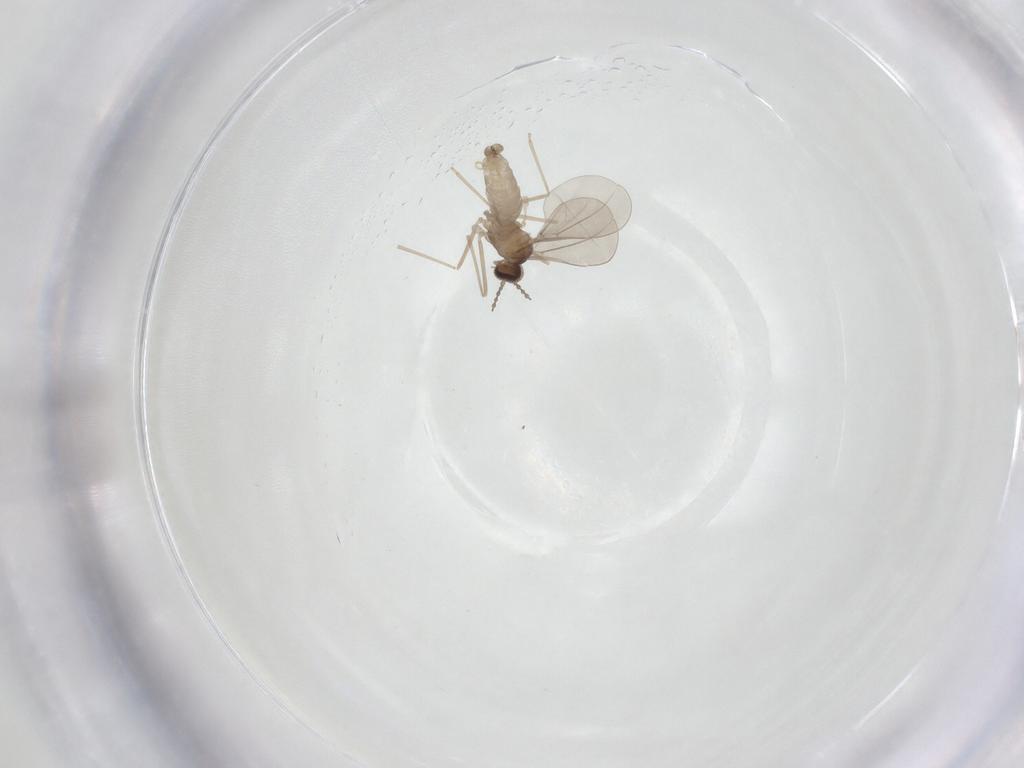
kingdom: Animalia
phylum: Arthropoda
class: Insecta
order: Diptera
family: Cecidomyiidae
